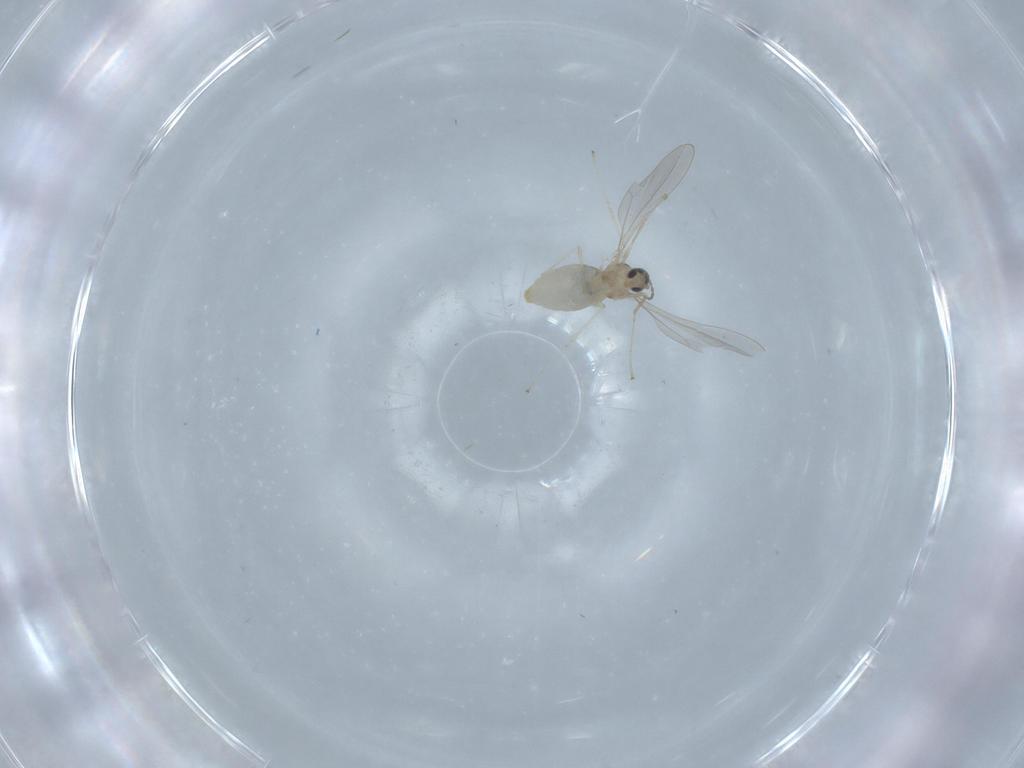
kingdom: Animalia
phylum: Arthropoda
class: Insecta
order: Diptera
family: Cecidomyiidae
